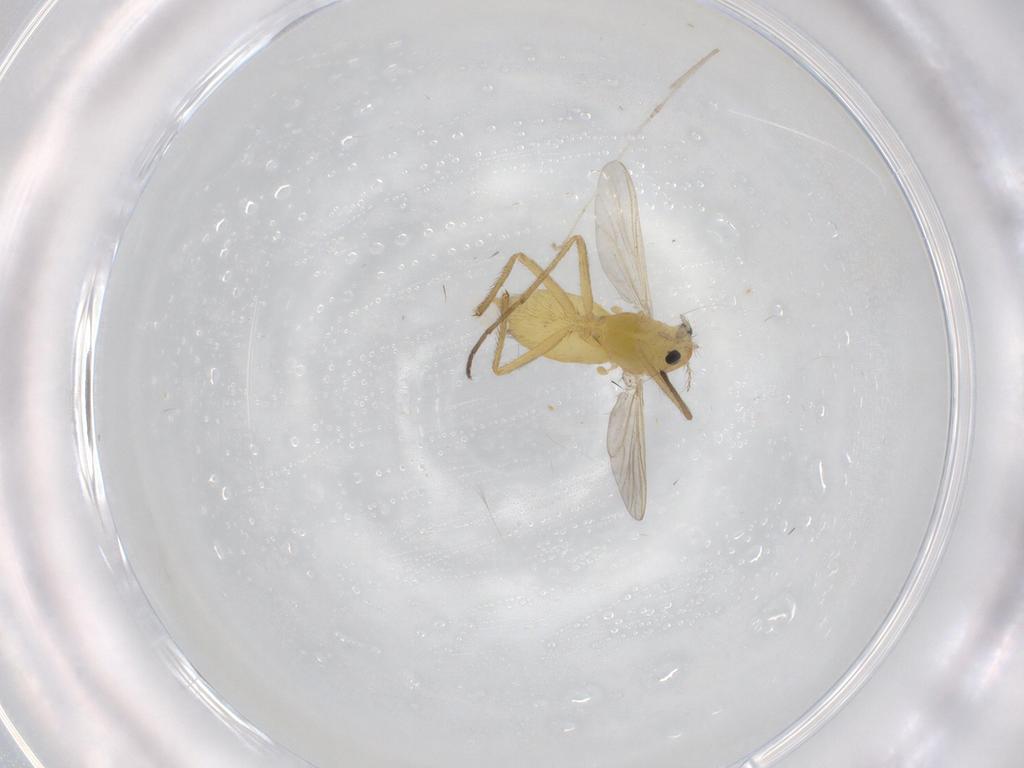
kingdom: Animalia
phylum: Arthropoda
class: Insecta
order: Diptera
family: Chironomidae
